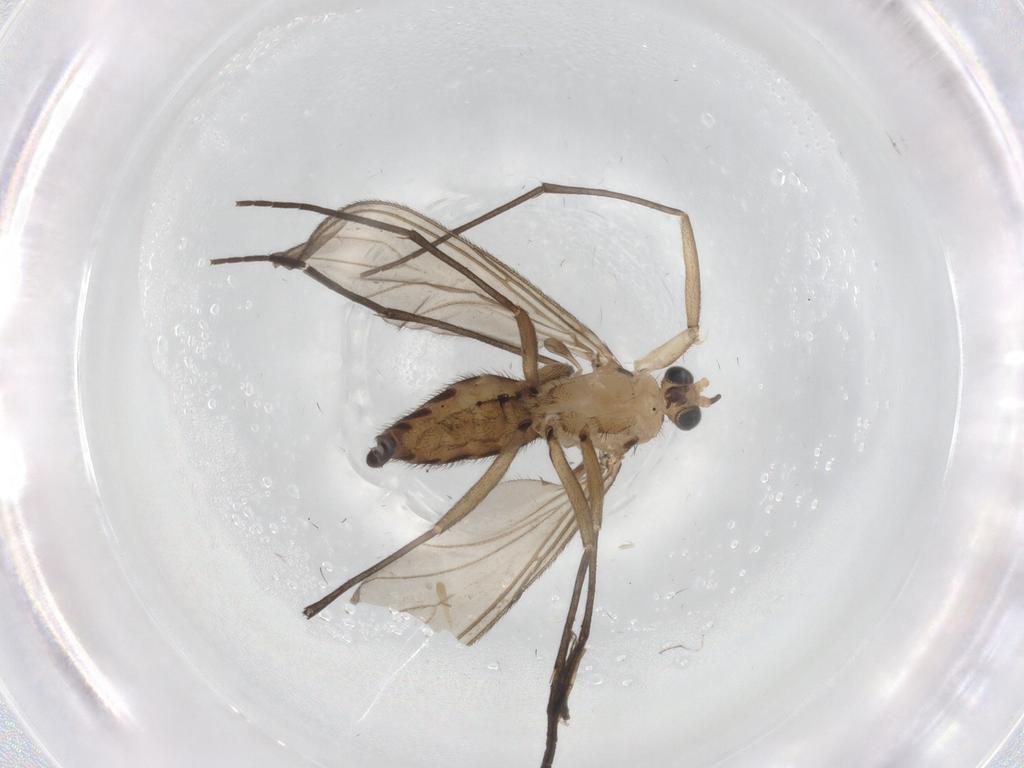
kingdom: Animalia
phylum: Arthropoda
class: Insecta
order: Diptera
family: Sciaridae
